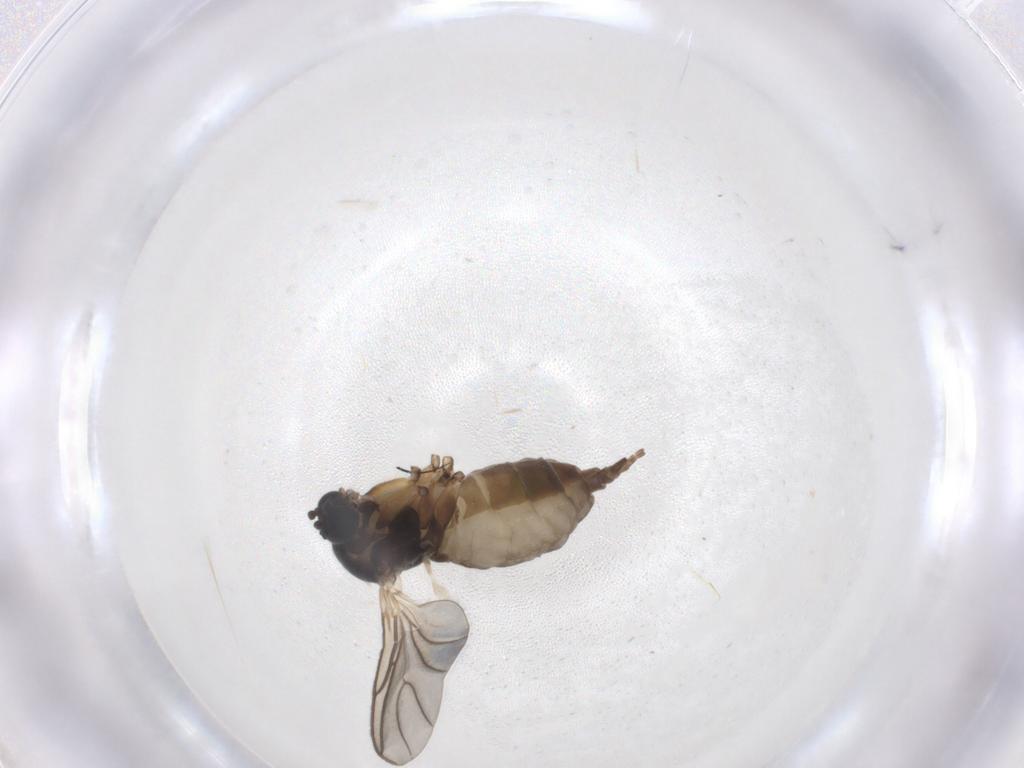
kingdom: Animalia
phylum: Arthropoda
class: Insecta
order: Diptera
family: Sciaridae
